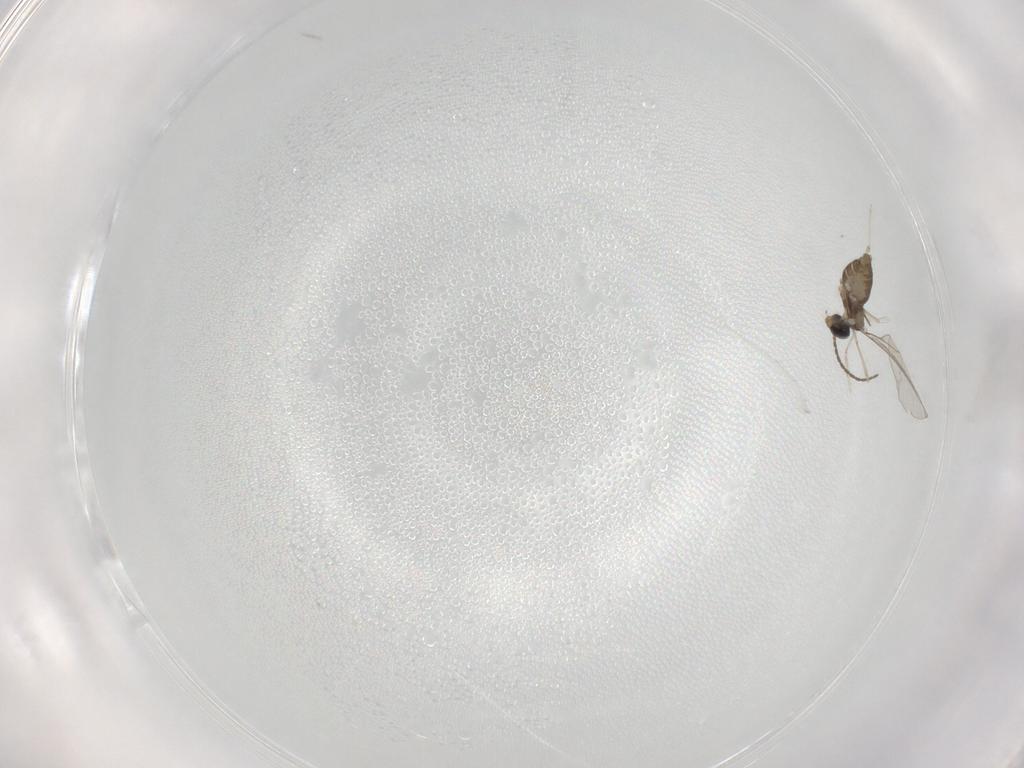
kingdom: Animalia
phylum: Arthropoda
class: Insecta
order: Diptera
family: Cecidomyiidae
